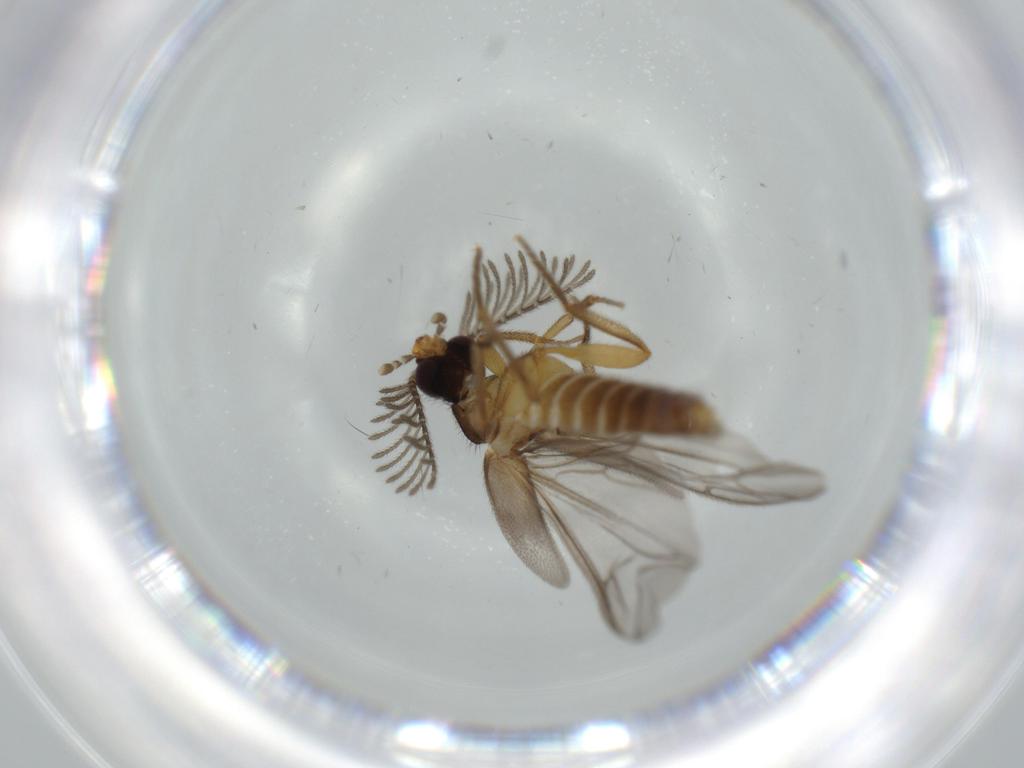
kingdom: Animalia
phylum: Arthropoda
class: Insecta
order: Coleoptera
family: Chrysomelidae
